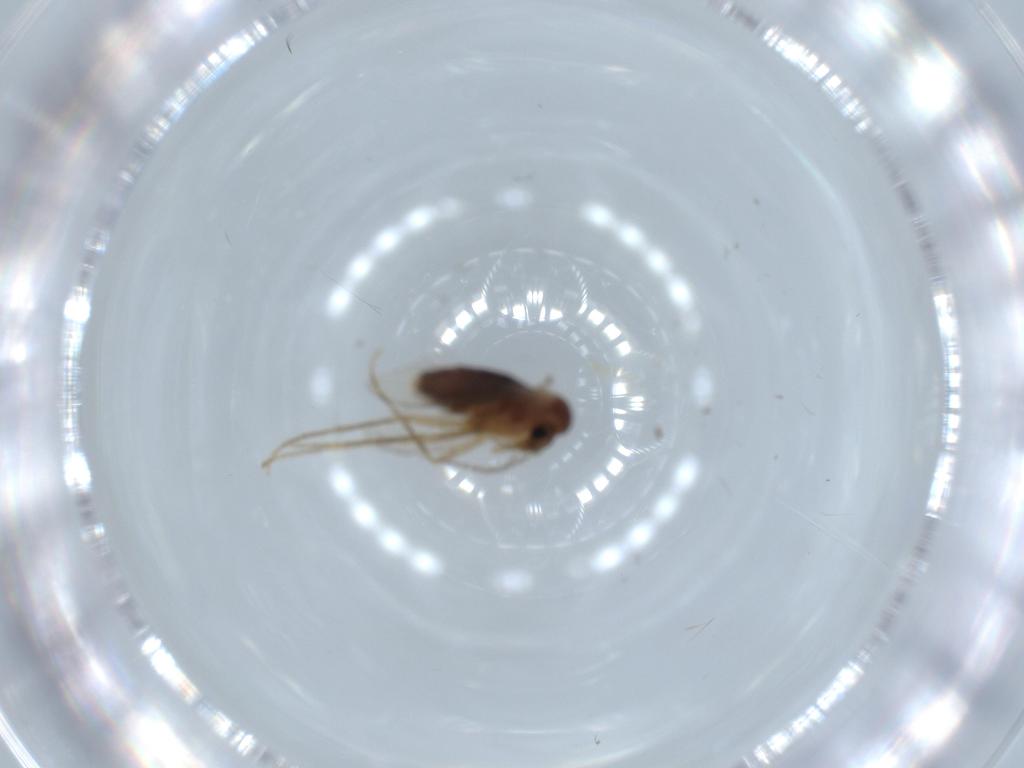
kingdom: Animalia
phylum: Arthropoda
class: Insecta
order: Diptera
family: Psychodidae
